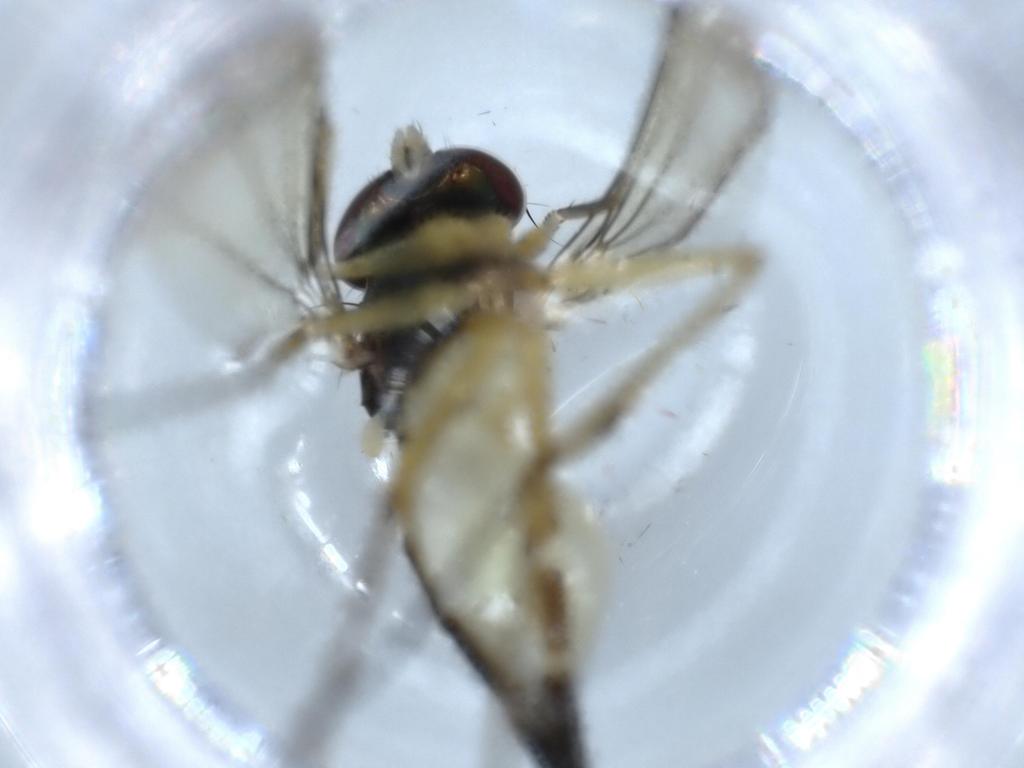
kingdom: Animalia
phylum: Arthropoda
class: Insecta
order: Diptera
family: Dolichopodidae
